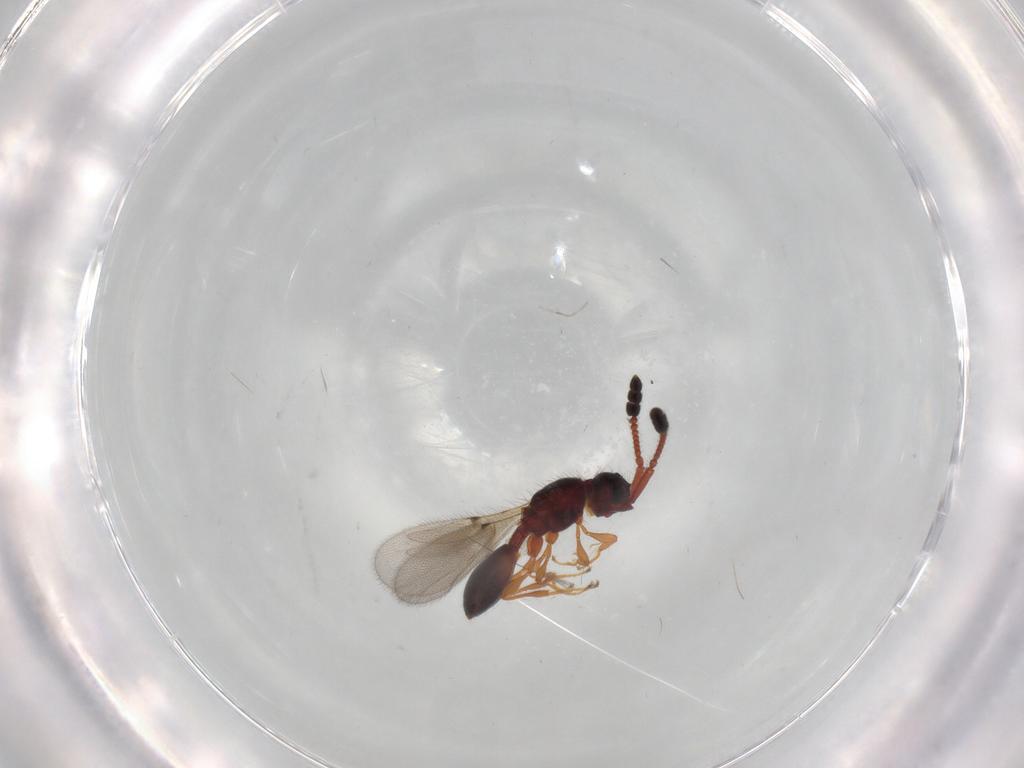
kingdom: Animalia
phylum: Arthropoda
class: Insecta
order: Hymenoptera
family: Diapriidae
